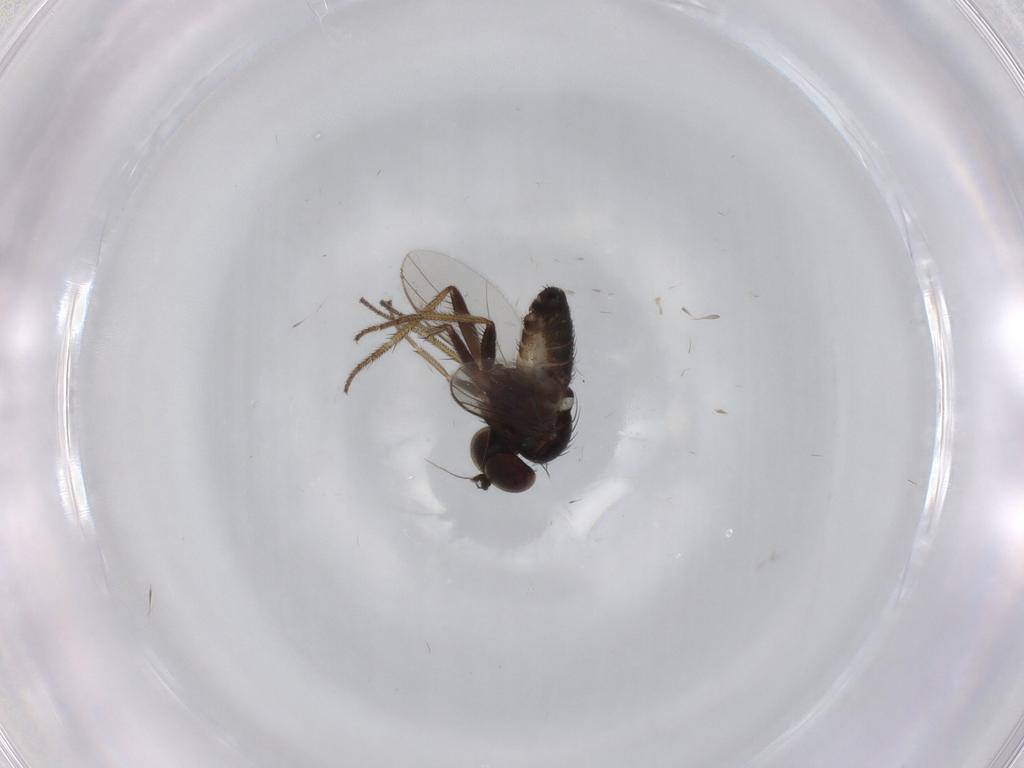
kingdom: Animalia
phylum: Arthropoda
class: Insecta
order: Diptera
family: Dolichopodidae
